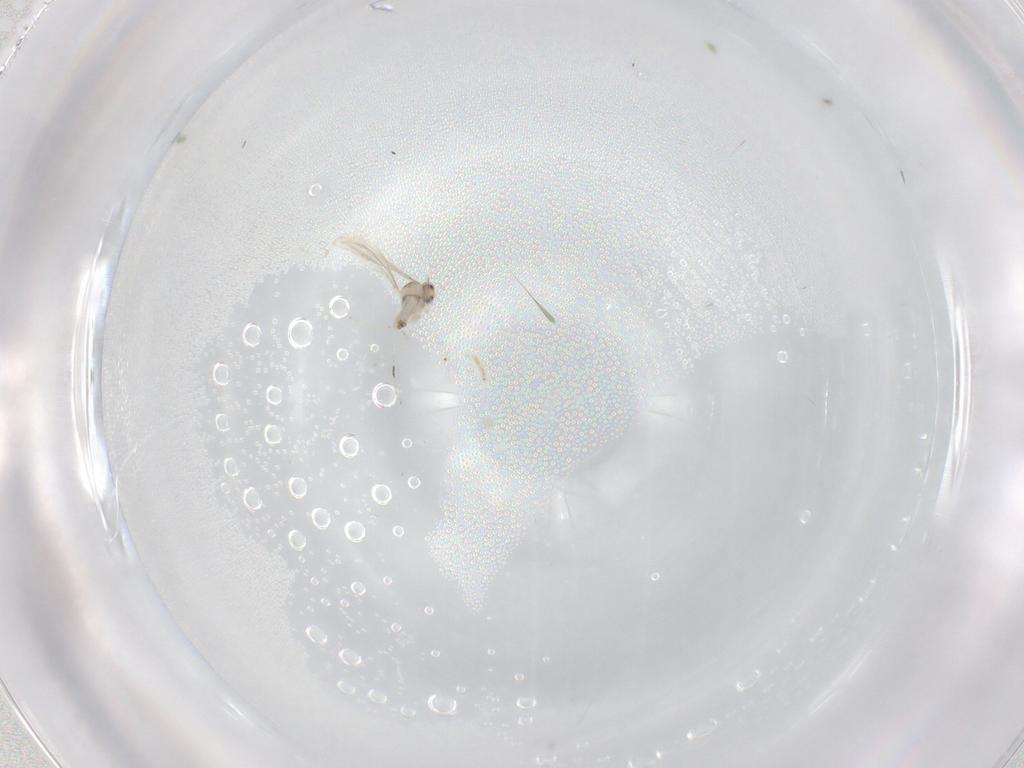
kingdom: Animalia
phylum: Arthropoda
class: Insecta
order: Diptera
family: Cecidomyiidae
